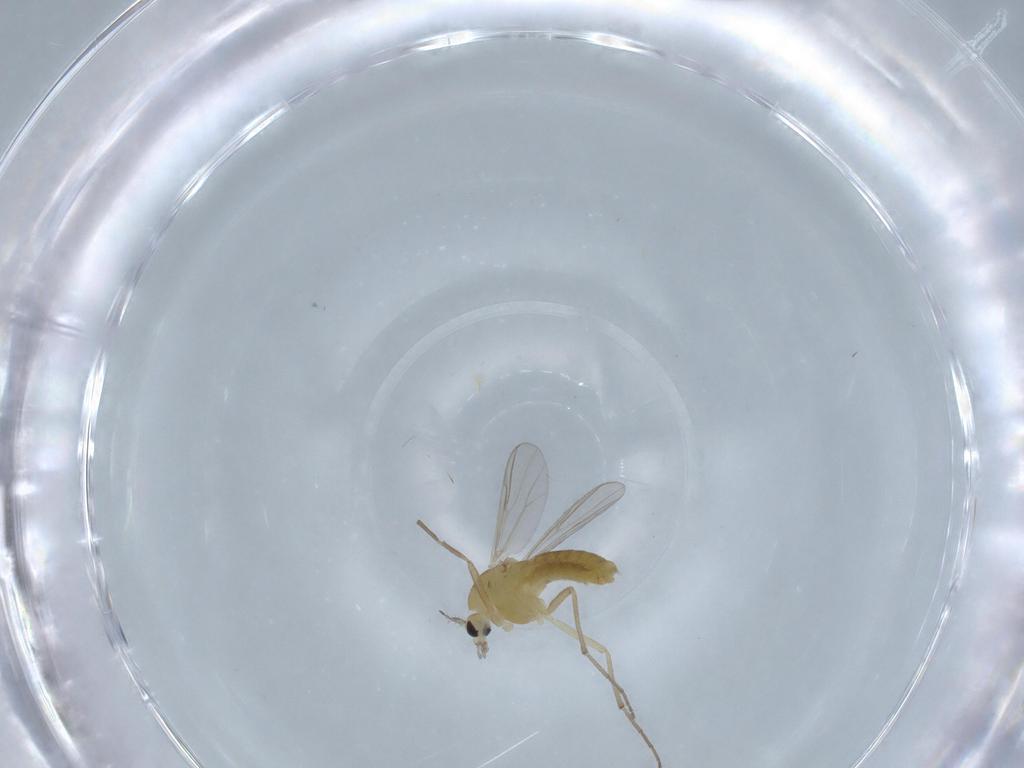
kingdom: Animalia
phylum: Arthropoda
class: Insecta
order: Diptera
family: Chironomidae
